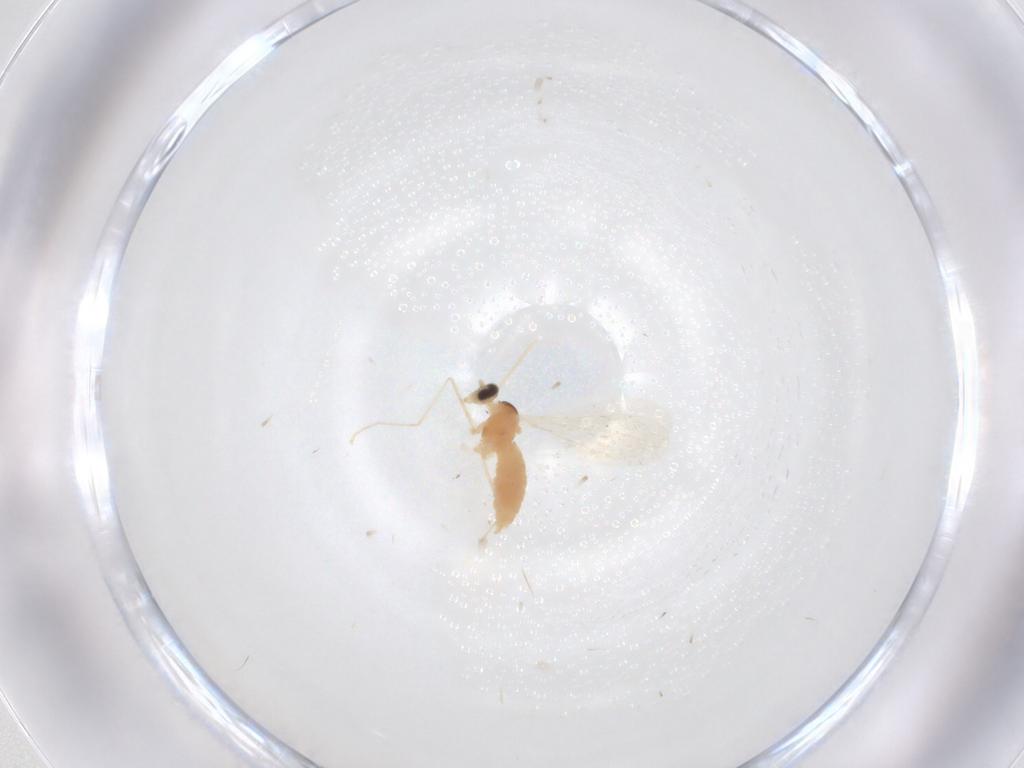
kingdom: Animalia
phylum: Arthropoda
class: Insecta
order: Diptera
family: Cecidomyiidae
